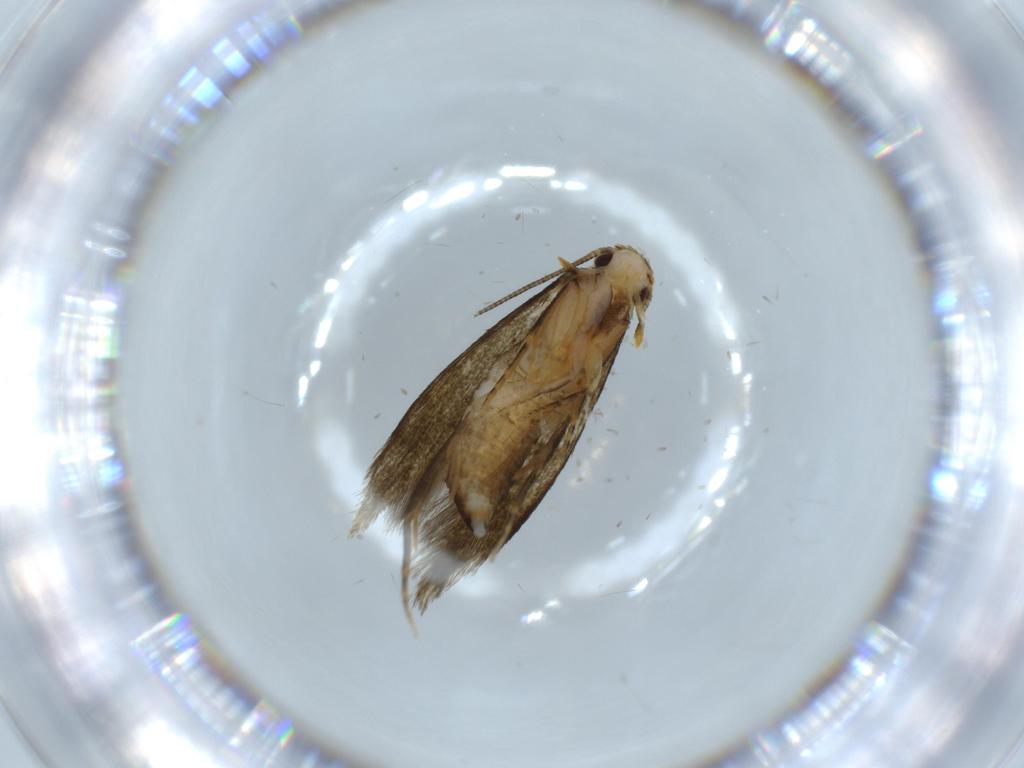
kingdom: Animalia
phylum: Arthropoda
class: Insecta
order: Lepidoptera
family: Tineidae
